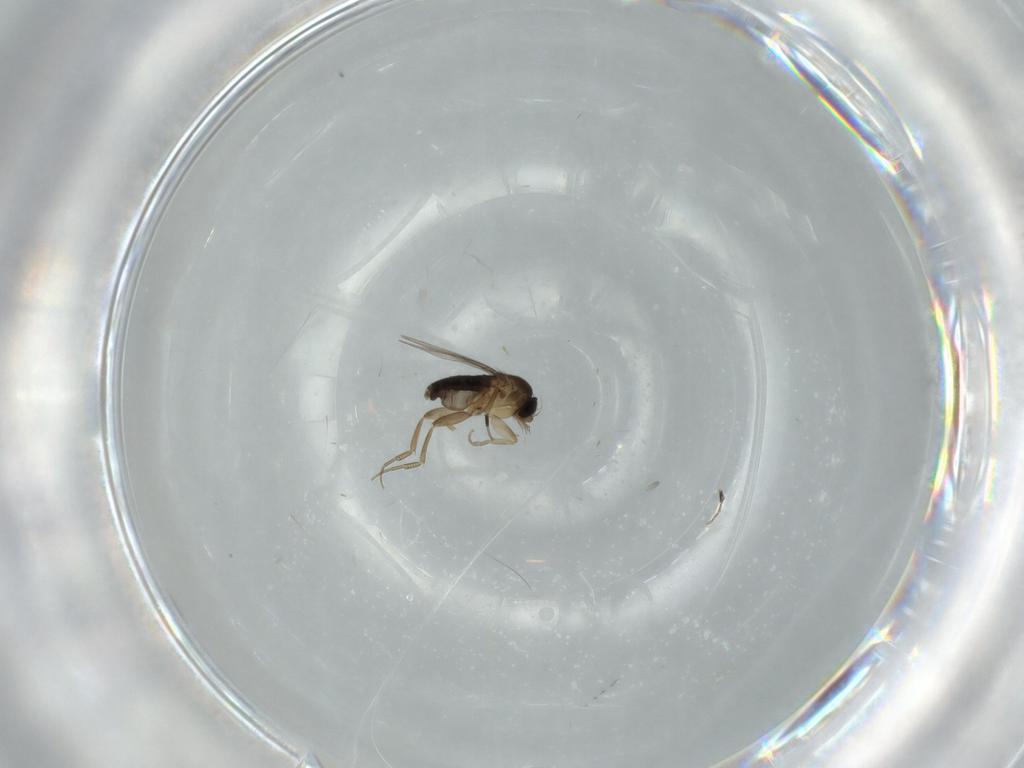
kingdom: Animalia
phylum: Arthropoda
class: Insecta
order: Diptera
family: Phoridae
